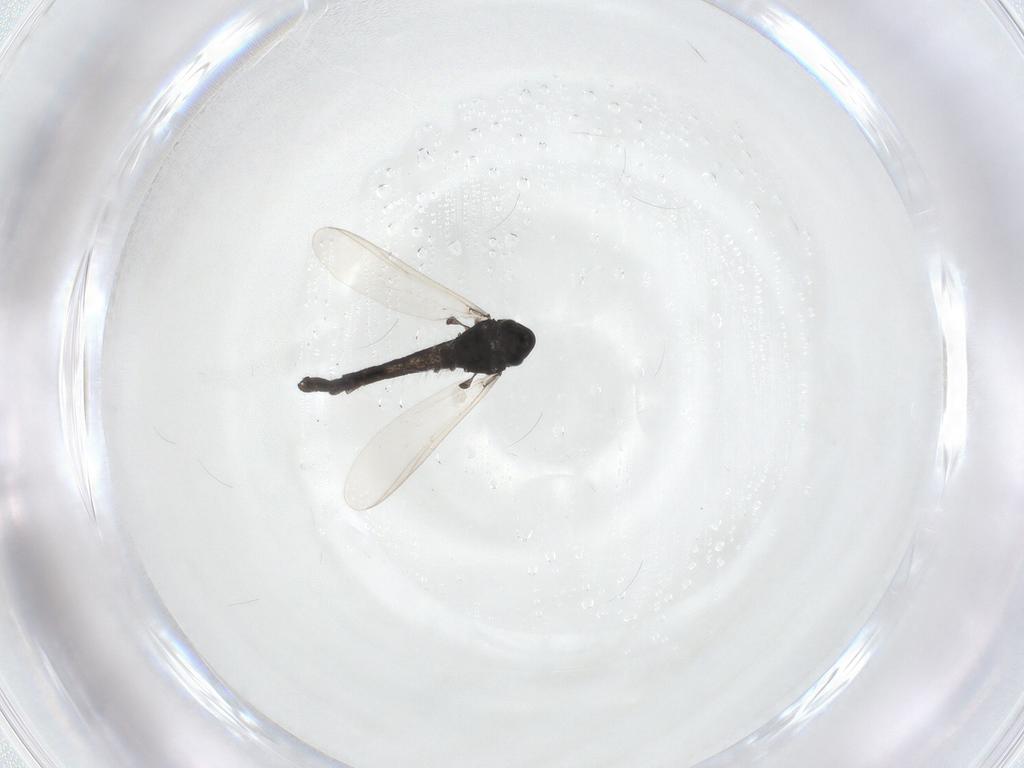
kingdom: Animalia
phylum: Arthropoda
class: Insecta
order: Diptera
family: Chironomidae
